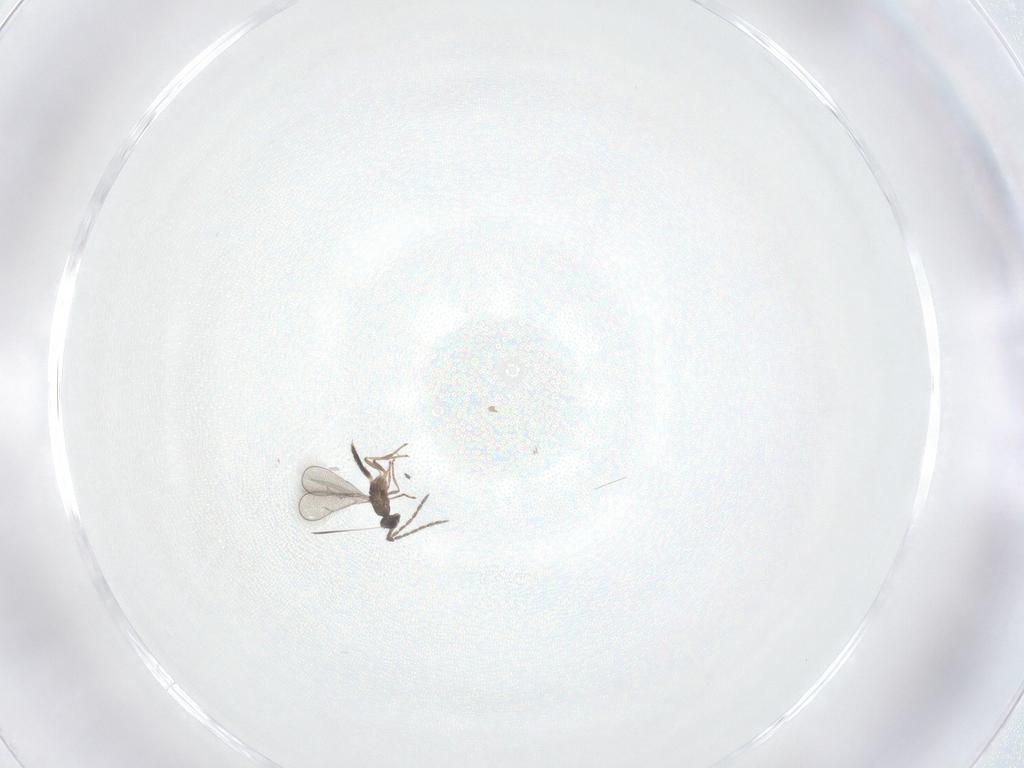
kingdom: Animalia
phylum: Arthropoda
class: Insecta
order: Hymenoptera
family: Eulophidae
